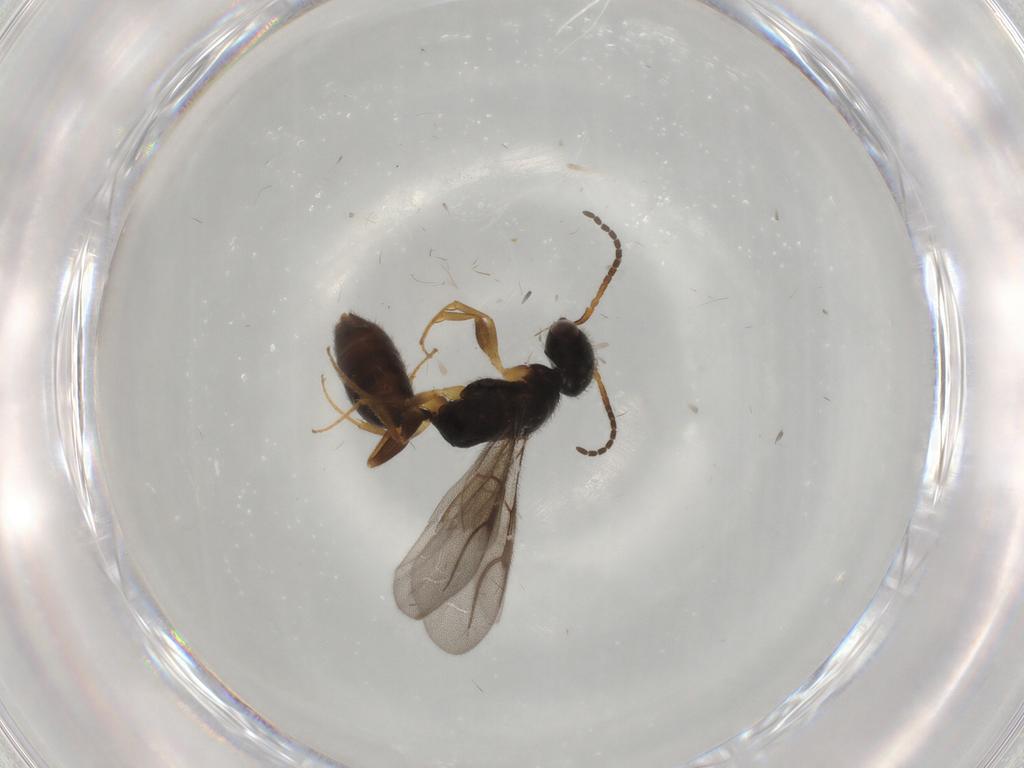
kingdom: Animalia
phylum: Arthropoda
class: Insecta
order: Hymenoptera
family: Bethylidae
